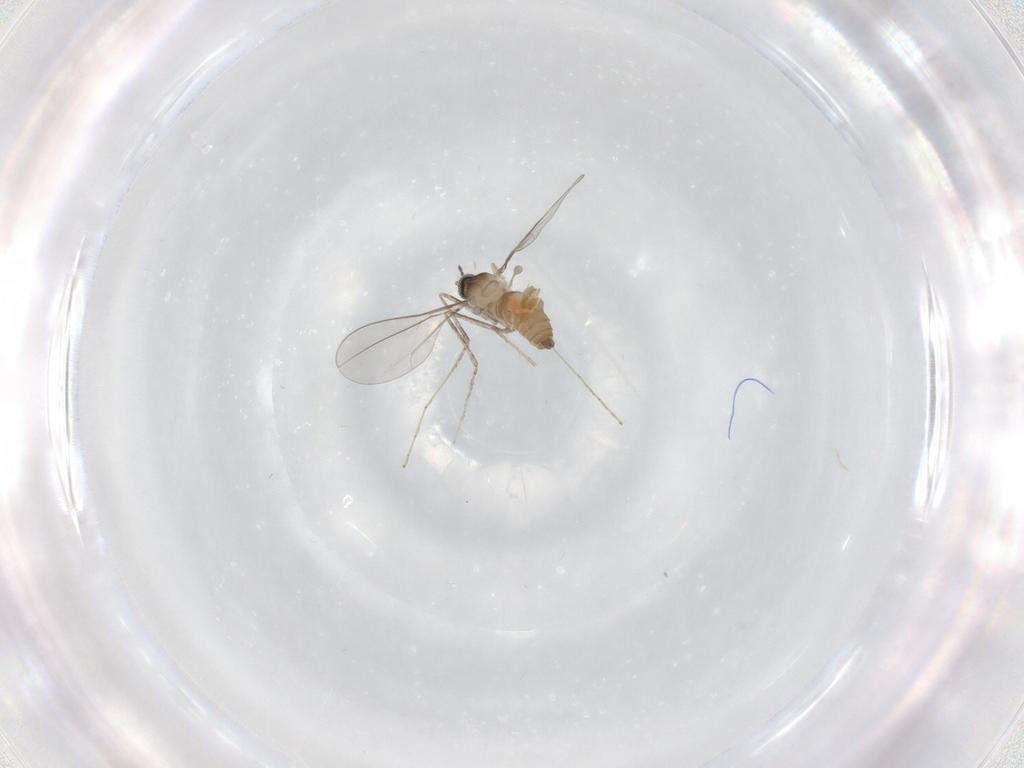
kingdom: Animalia
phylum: Arthropoda
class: Insecta
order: Diptera
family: Cecidomyiidae
